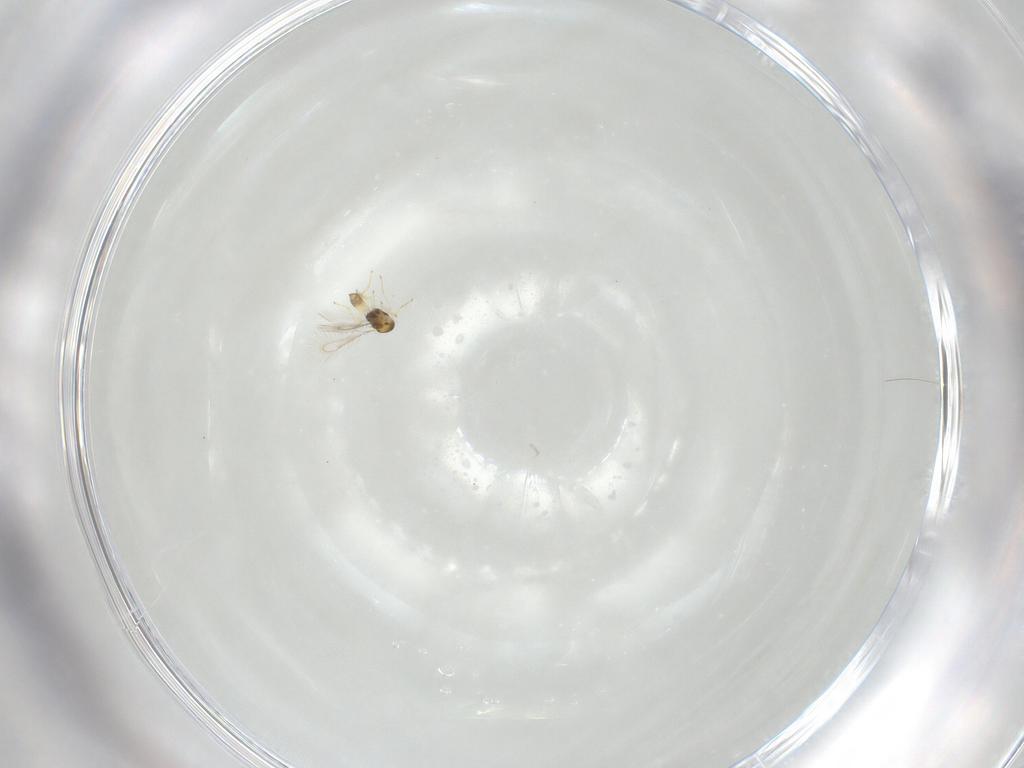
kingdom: Animalia
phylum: Arthropoda
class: Insecta
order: Hymenoptera
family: Eulophidae
